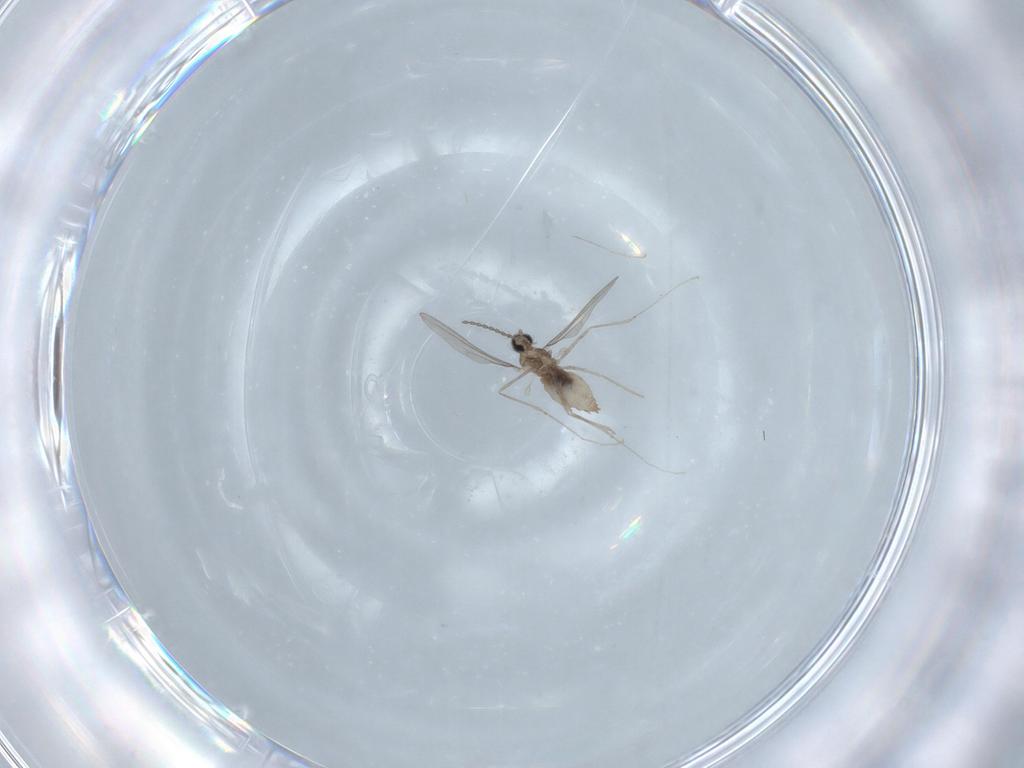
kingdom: Animalia
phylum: Arthropoda
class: Insecta
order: Diptera
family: Cecidomyiidae
